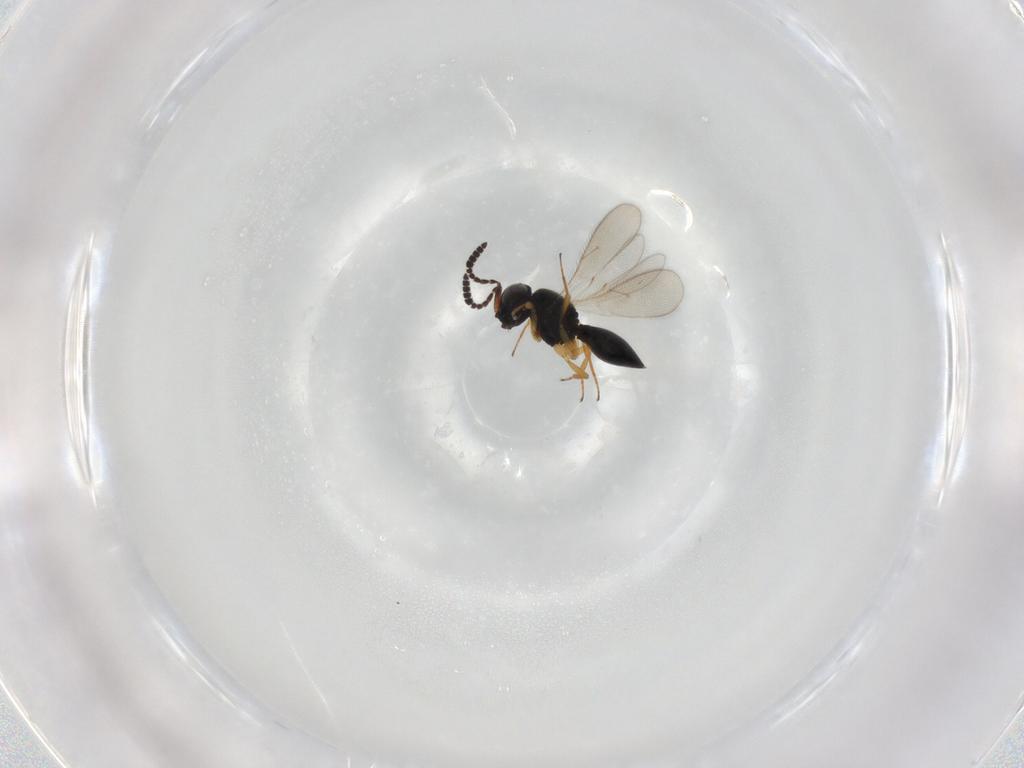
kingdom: Animalia
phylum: Arthropoda
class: Insecta
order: Hymenoptera
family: Scelionidae
